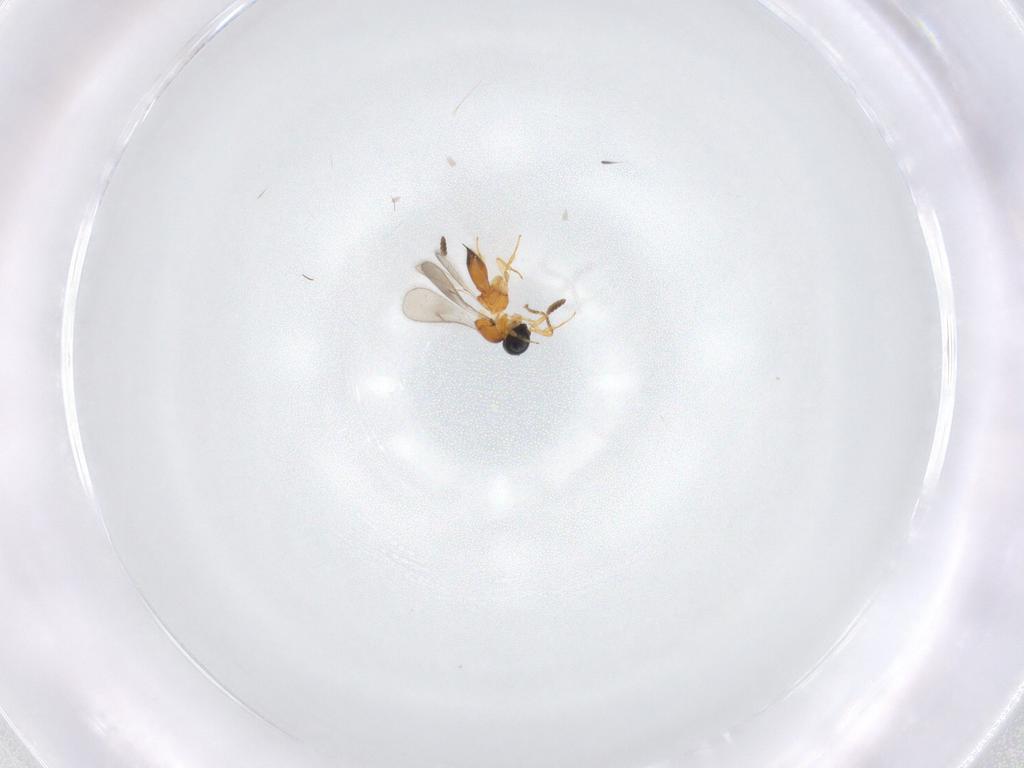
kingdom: Animalia
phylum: Arthropoda
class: Insecta
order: Hymenoptera
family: Scelionidae
